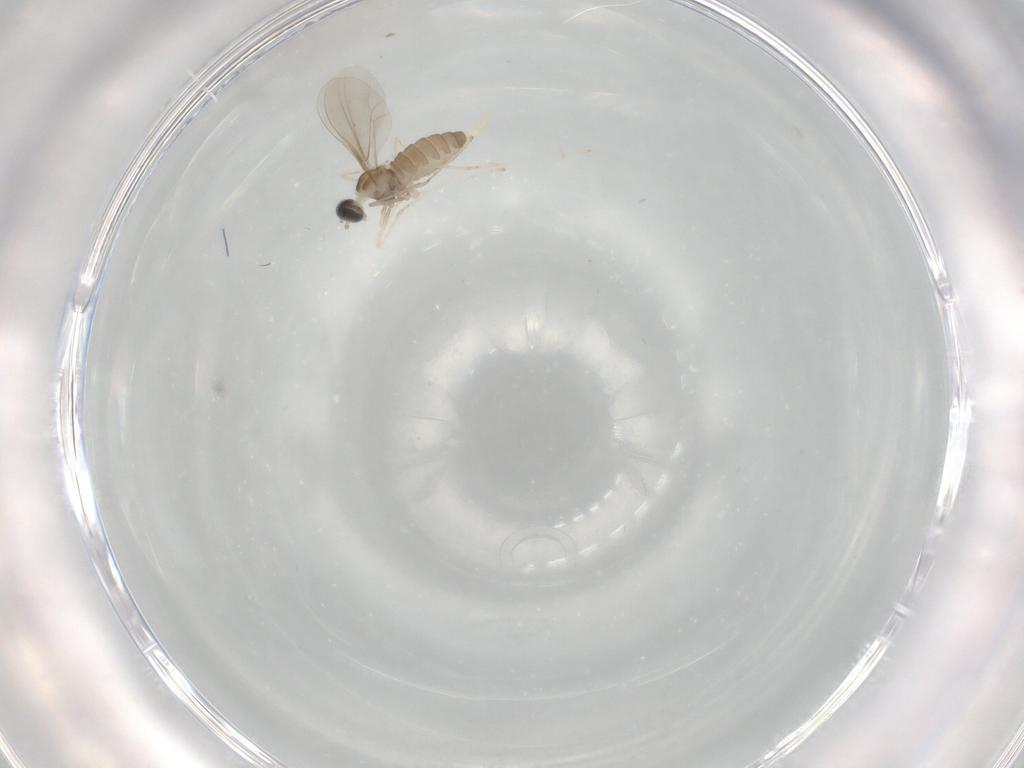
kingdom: Animalia
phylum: Arthropoda
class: Insecta
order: Diptera
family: Cecidomyiidae
